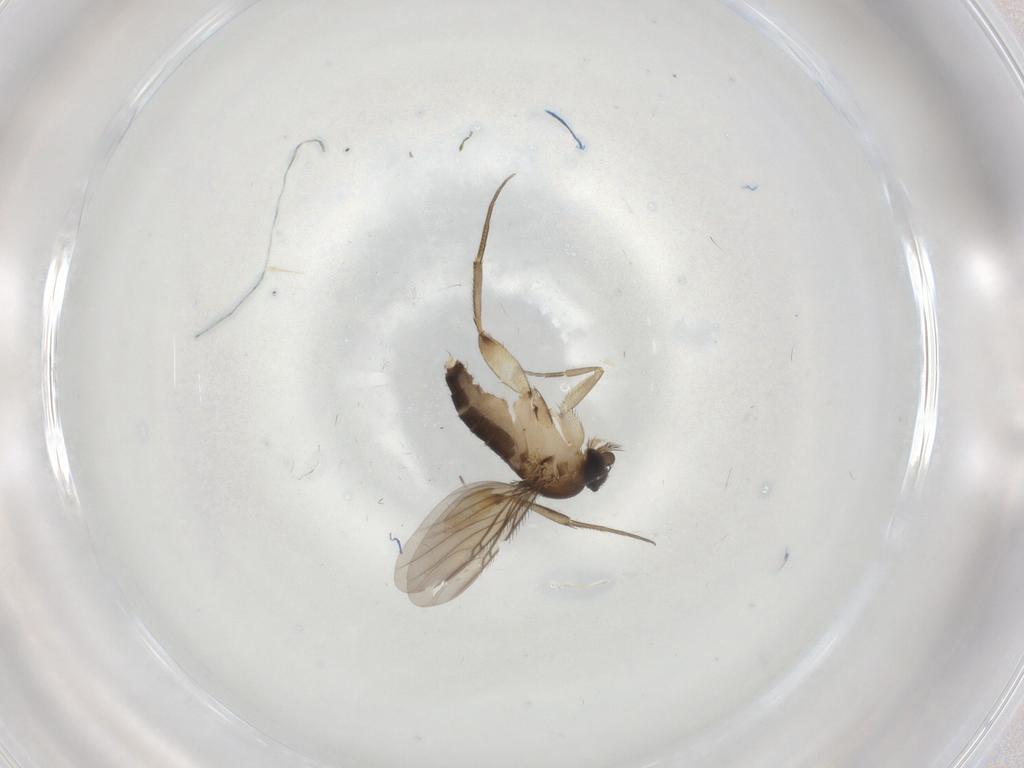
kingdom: Animalia
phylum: Arthropoda
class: Insecta
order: Diptera
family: Phoridae
